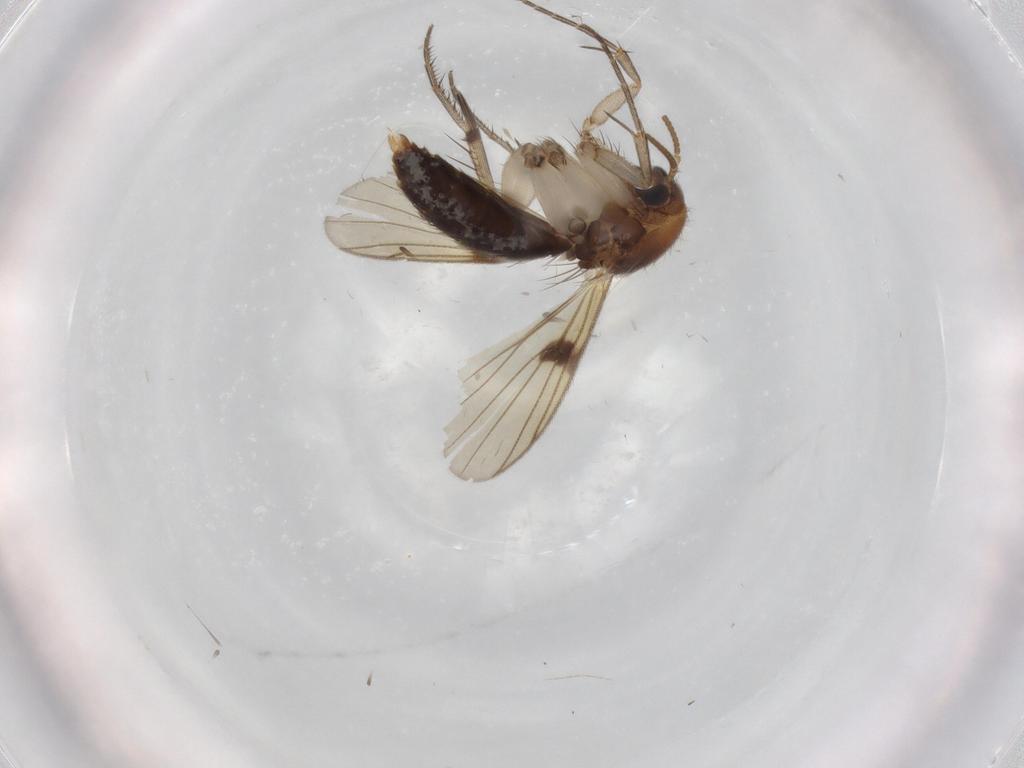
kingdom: Animalia
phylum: Arthropoda
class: Insecta
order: Diptera
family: Mycetophilidae
